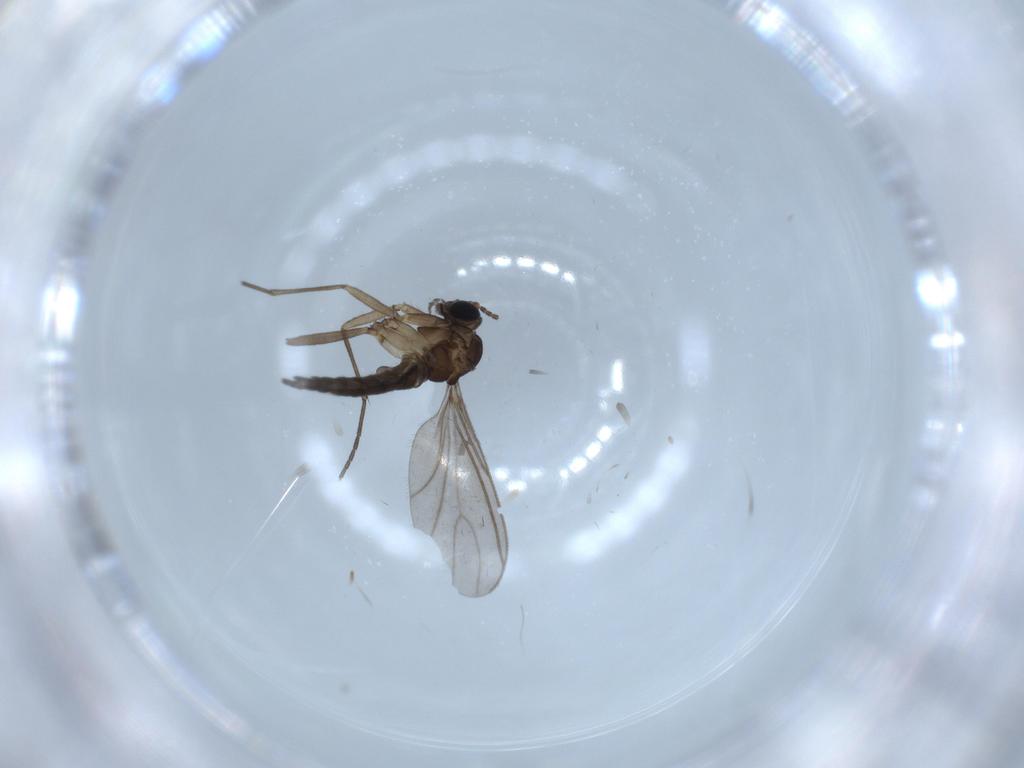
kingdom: Animalia
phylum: Arthropoda
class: Insecta
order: Diptera
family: Sciaridae
